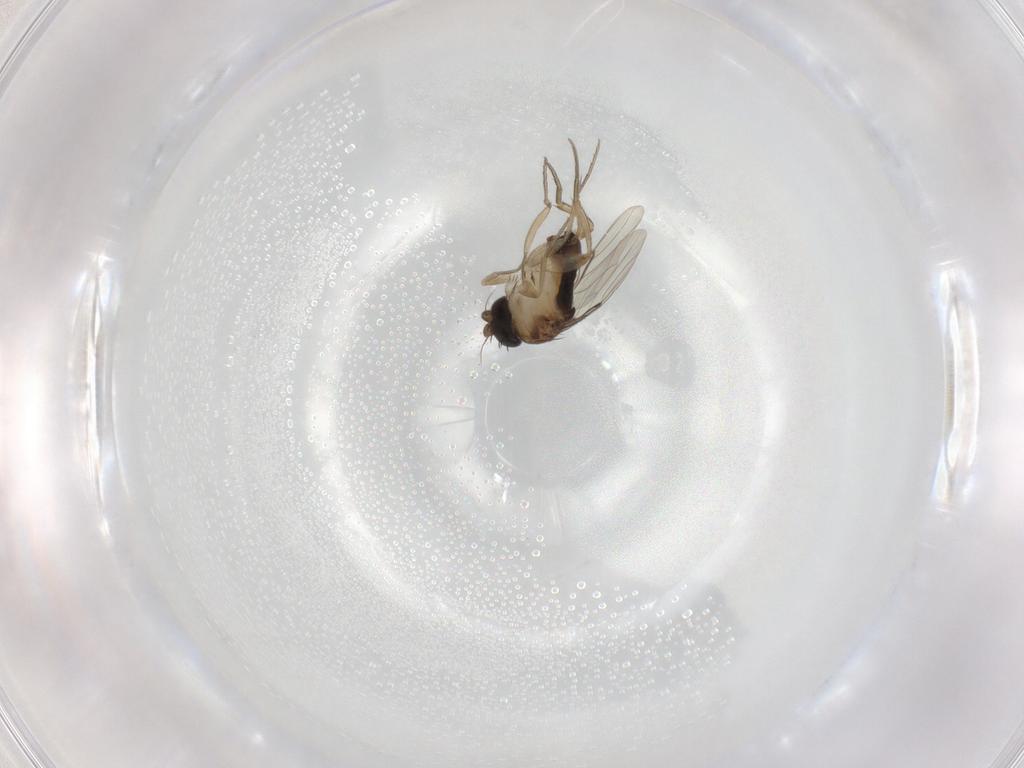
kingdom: Animalia
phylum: Arthropoda
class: Insecta
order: Diptera
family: Phoridae
